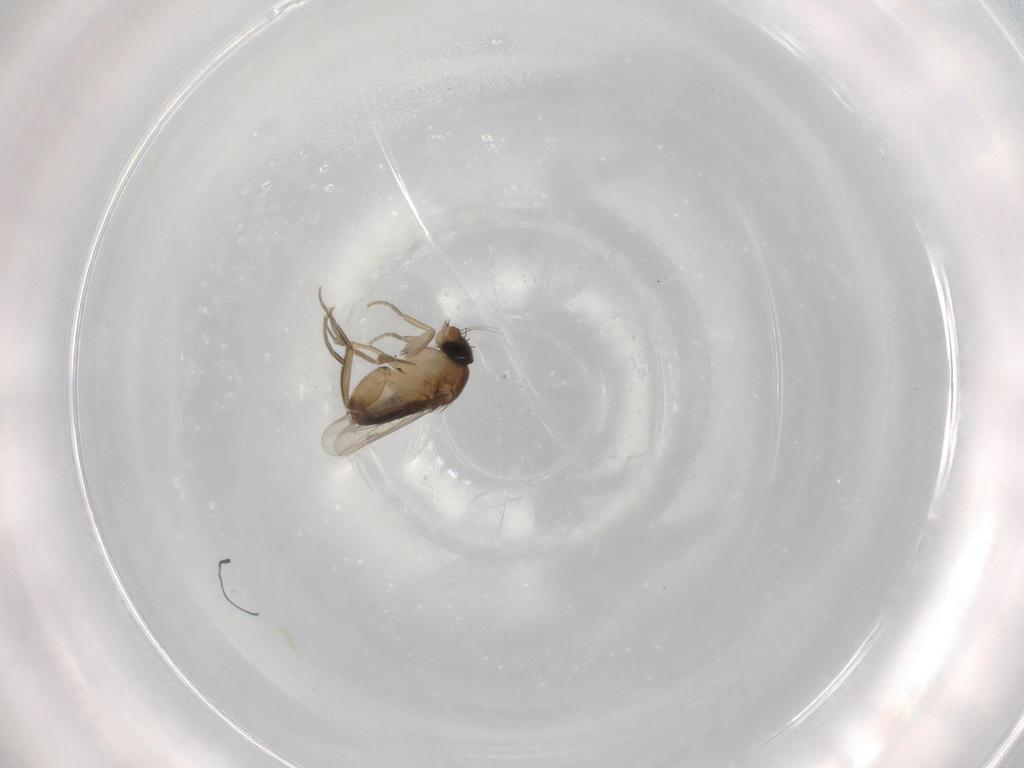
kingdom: Animalia
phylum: Arthropoda
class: Insecta
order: Diptera
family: Phoridae
